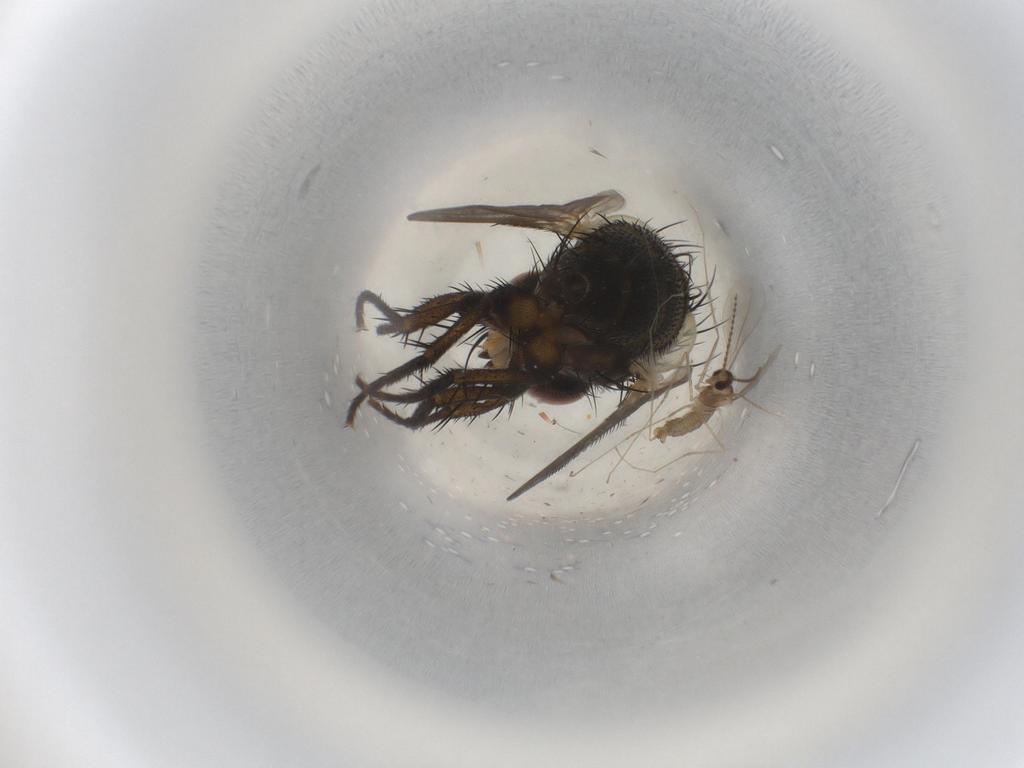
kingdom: Animalia
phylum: Arthropoda
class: Insecta
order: Diptera
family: Cecidomyiidae
